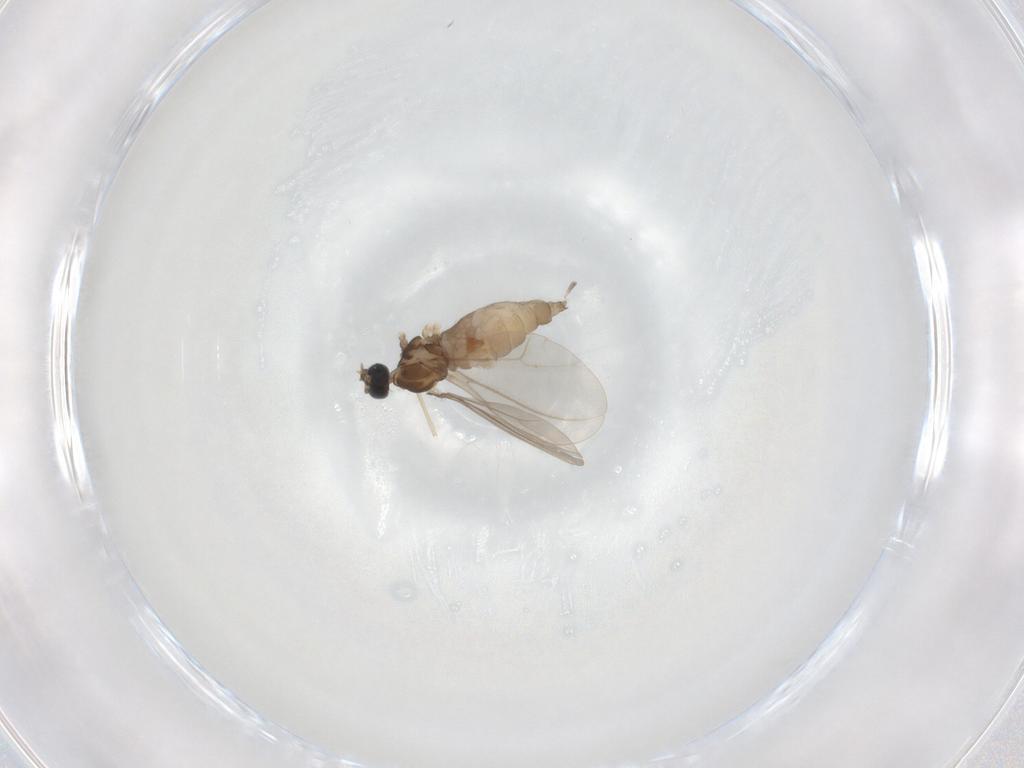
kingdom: Animalia
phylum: Arthropoda
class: Insecta
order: Diptera
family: Cecidomyiidae
